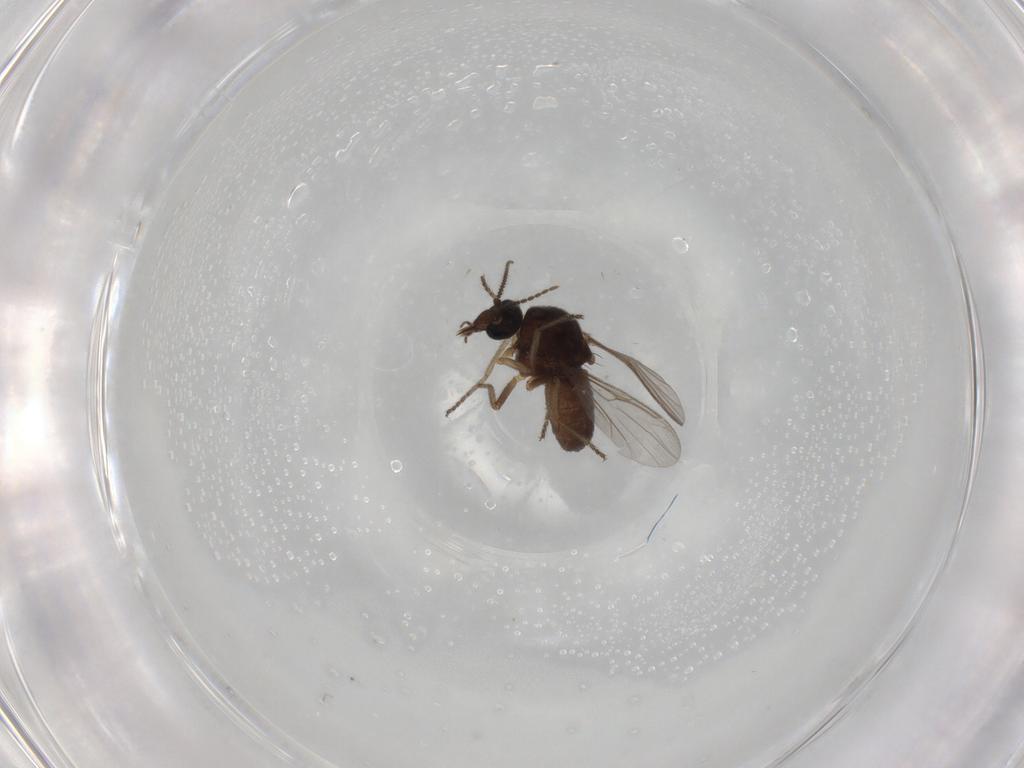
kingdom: Animalia
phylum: Arthropoda
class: Insecta
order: Diptera
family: Ceratopogonidae
